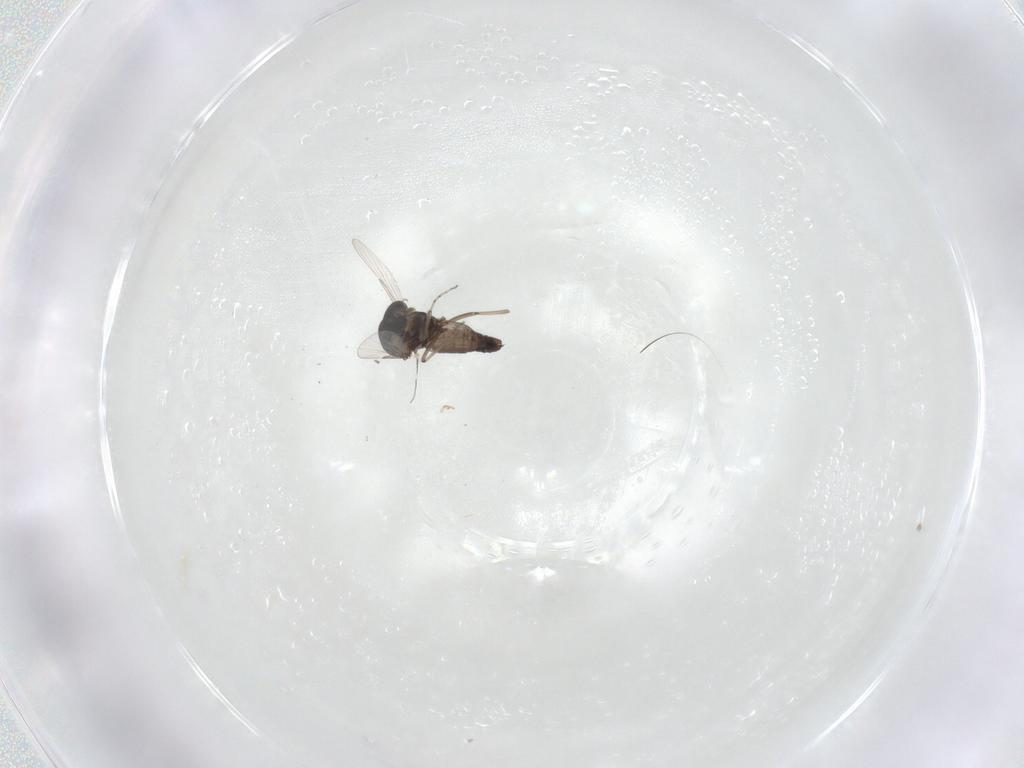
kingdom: Animalia
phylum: Arthropoda
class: Insecta
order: Diptera
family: Ceratopogonidae
